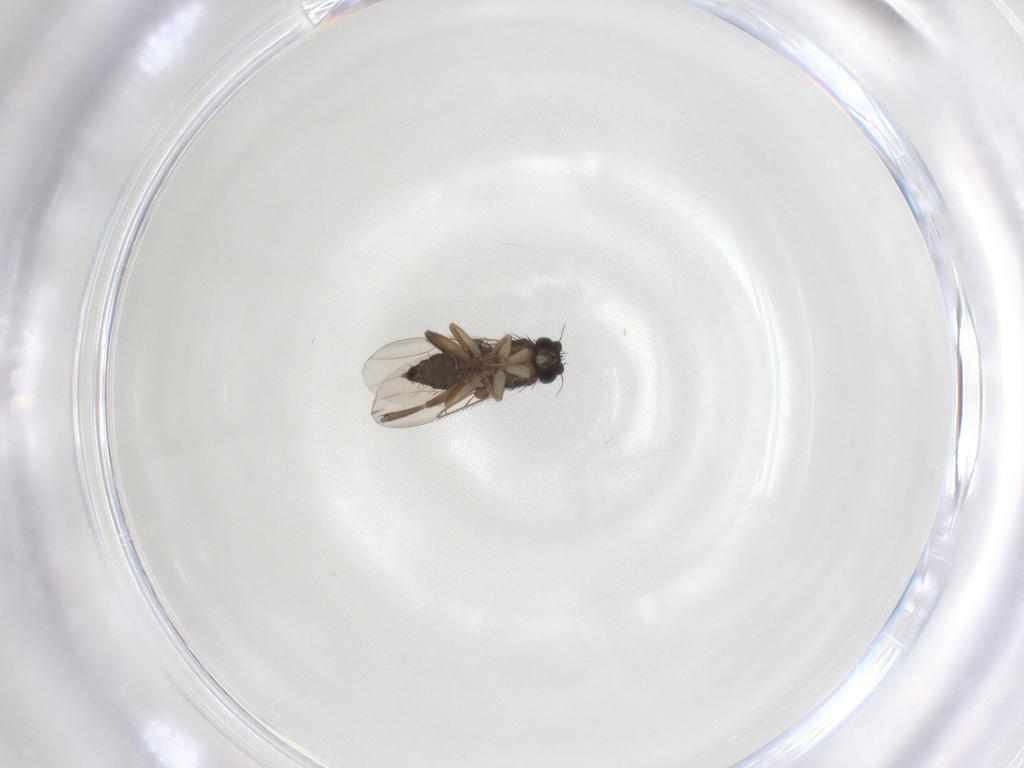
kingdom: Animalia
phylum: Arthropoda
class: Insecta
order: Diptera
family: Phoridae
